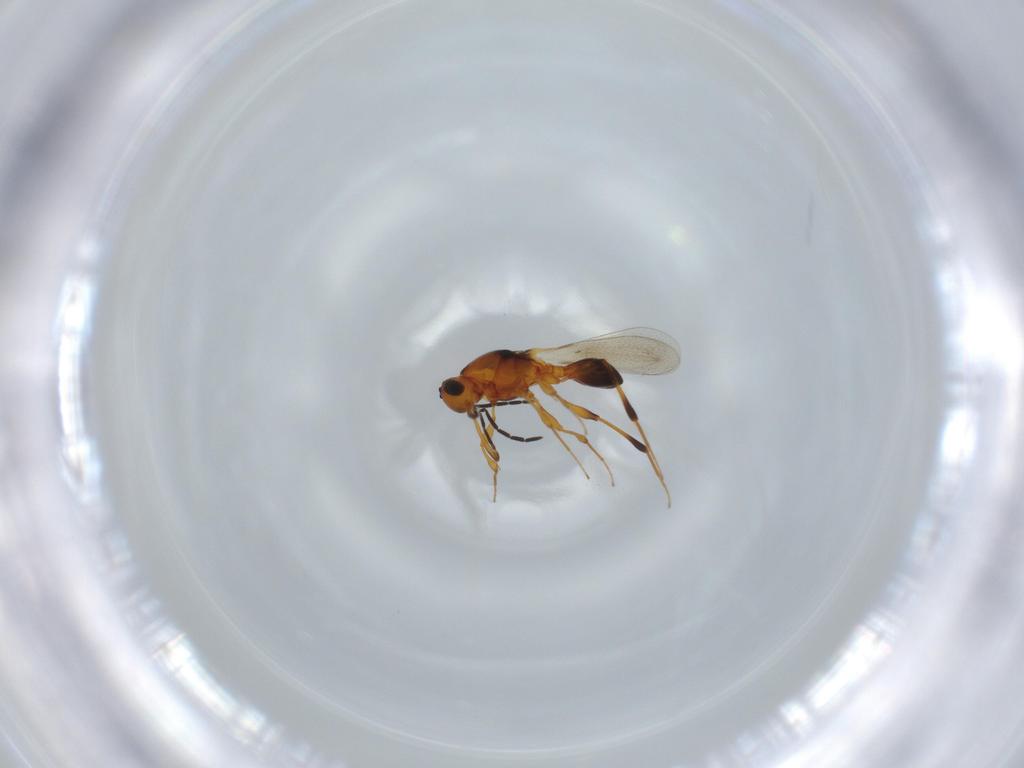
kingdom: Animalia
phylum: Arthropoda
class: Insecta
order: Hymenoptera
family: Platygastridae
